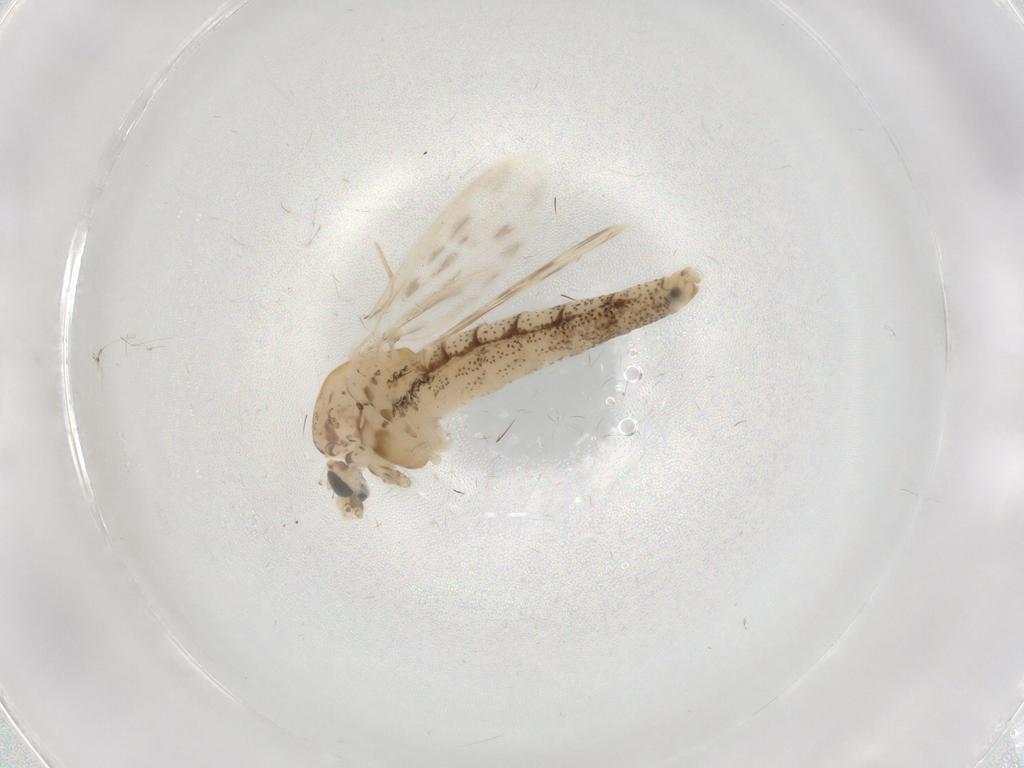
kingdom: Animalia
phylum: Arthropoda
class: Insecta
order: Diptera
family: Chaoboridae
